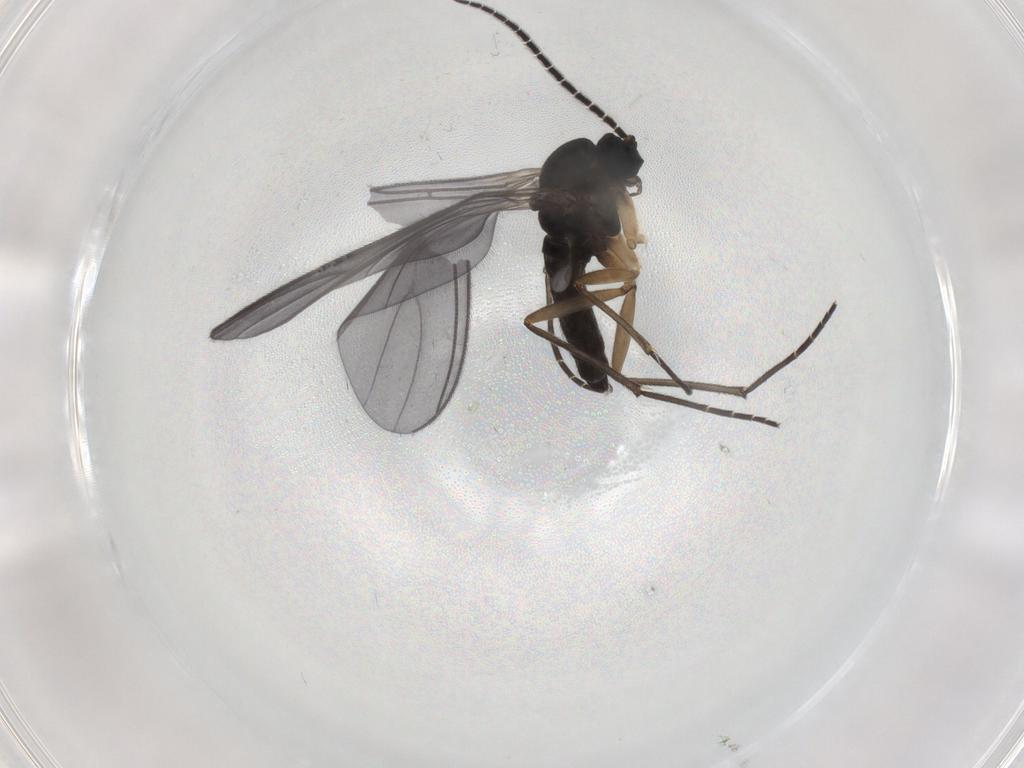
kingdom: Animalia
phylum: Arthropoda
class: Insecta
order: Diptera
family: Sciaridae
